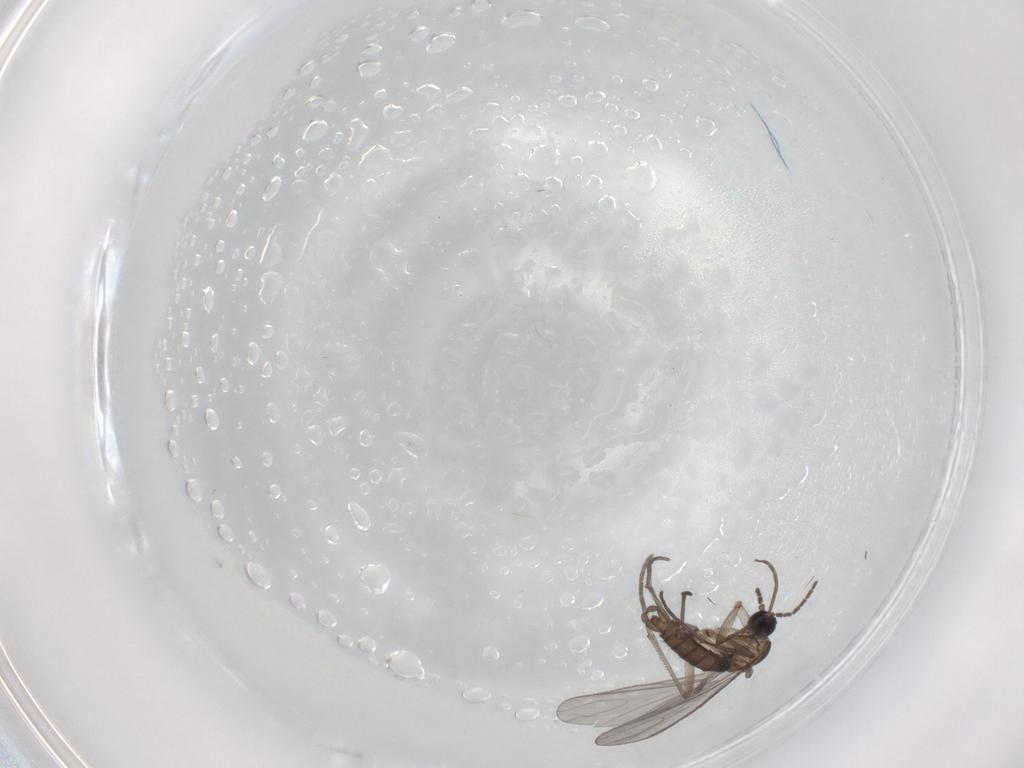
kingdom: Animalia
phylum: Arthropoda
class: Insecta
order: Diptera
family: Sciaridae
